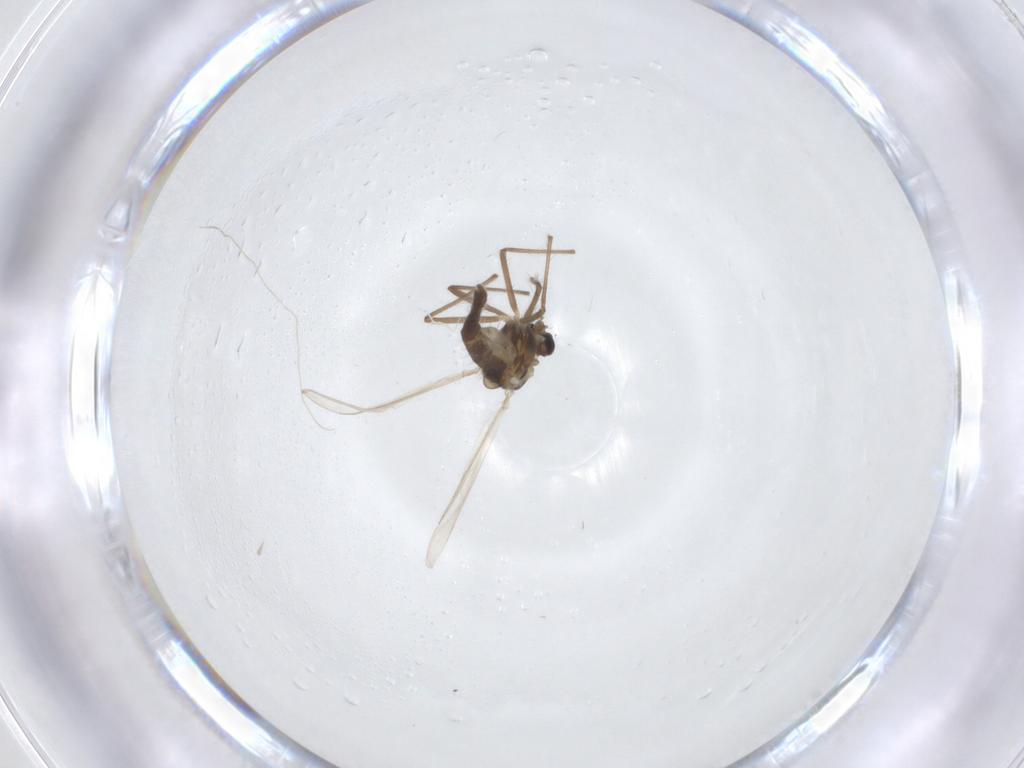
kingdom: Animalia
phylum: Arthropoda
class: Insecta
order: Diptera
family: Chironomidae
